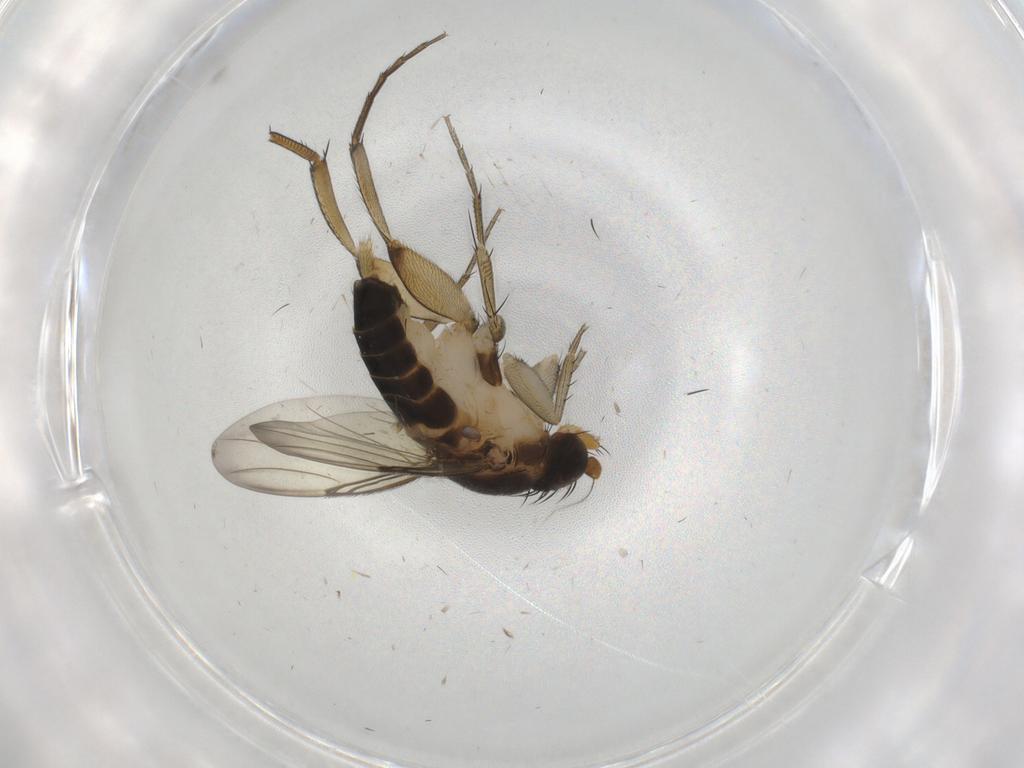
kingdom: Animalia
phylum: Arthropoda
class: Insecta
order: Diptera
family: Phoridae
